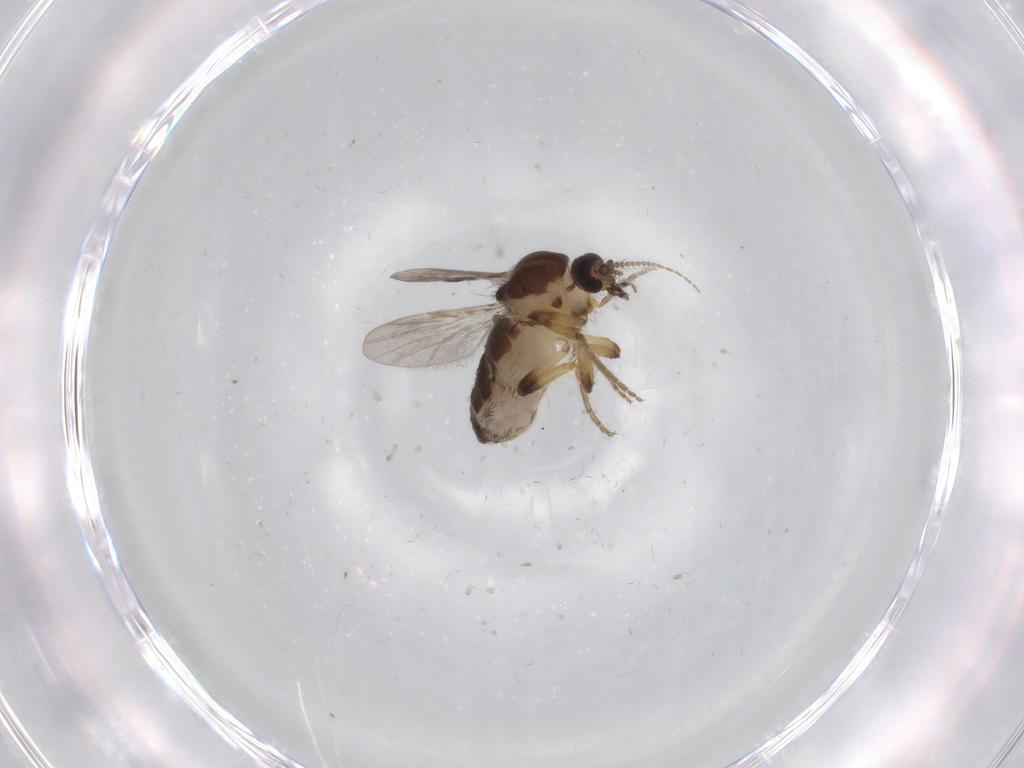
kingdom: Animalia
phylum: Arthropoda
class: Insecta
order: Diptera
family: Ceratopogonidae
